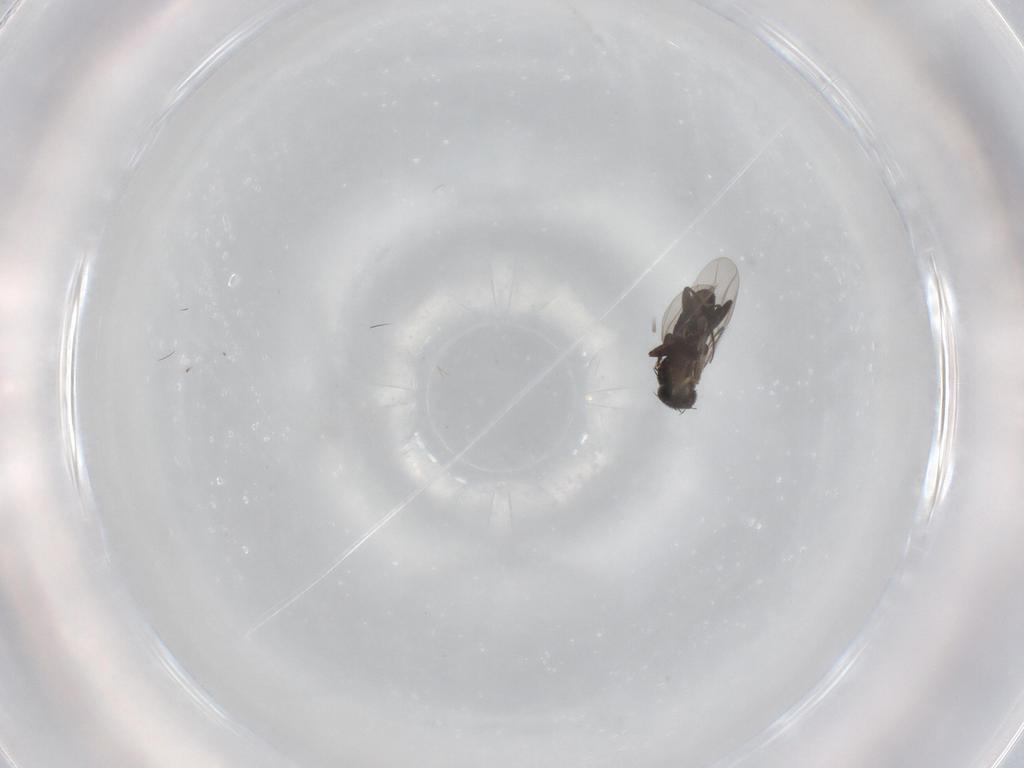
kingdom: Animalia
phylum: Arthropoda
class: Insecta
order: Diptera
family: Phoridae
